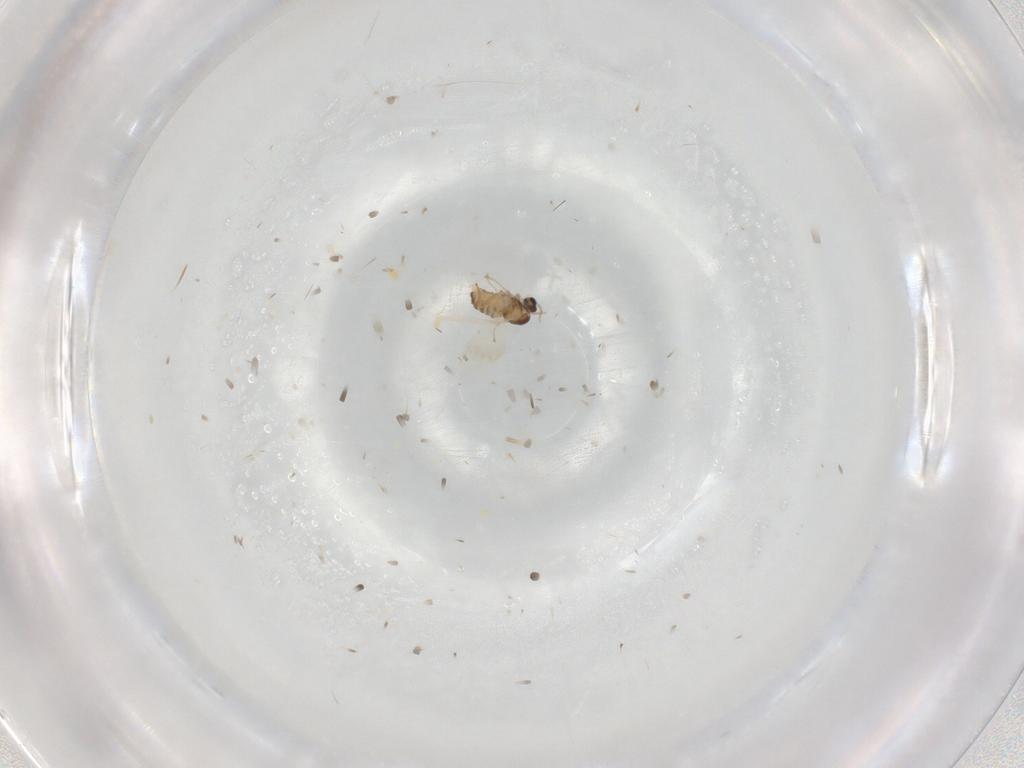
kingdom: Animalia
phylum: Arthropoda
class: Insecta
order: Diptera
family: Cecidomyiidae
